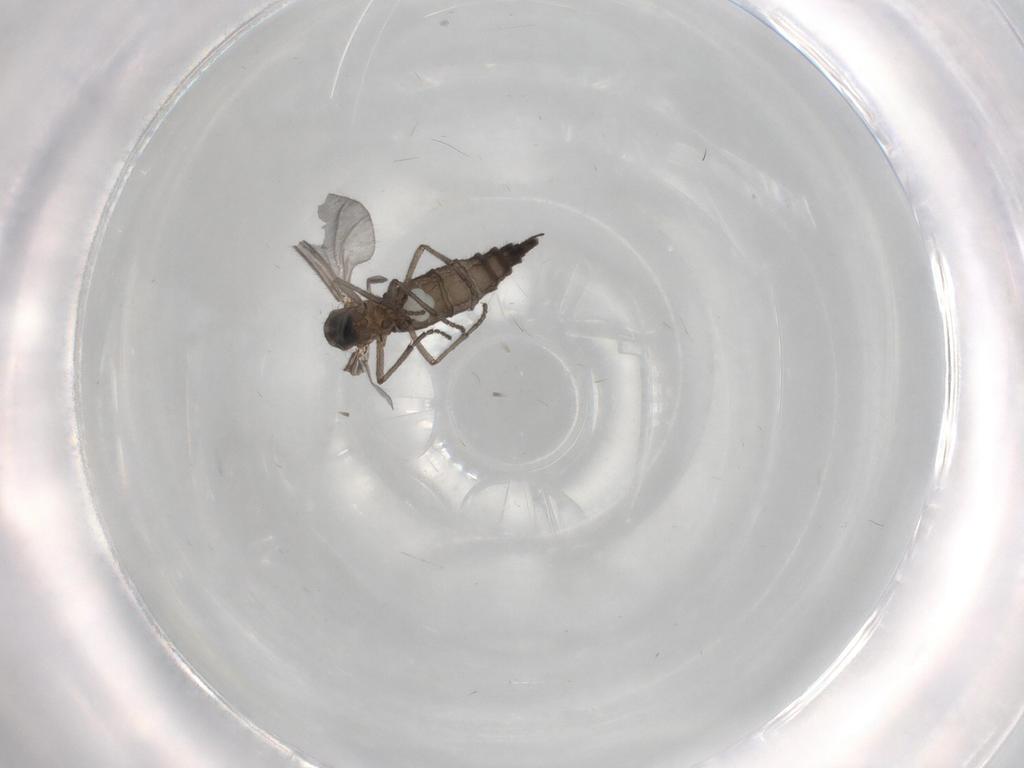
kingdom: Animalia
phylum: Arthropoda
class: Insecta
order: Diptera
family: Sciaridae
